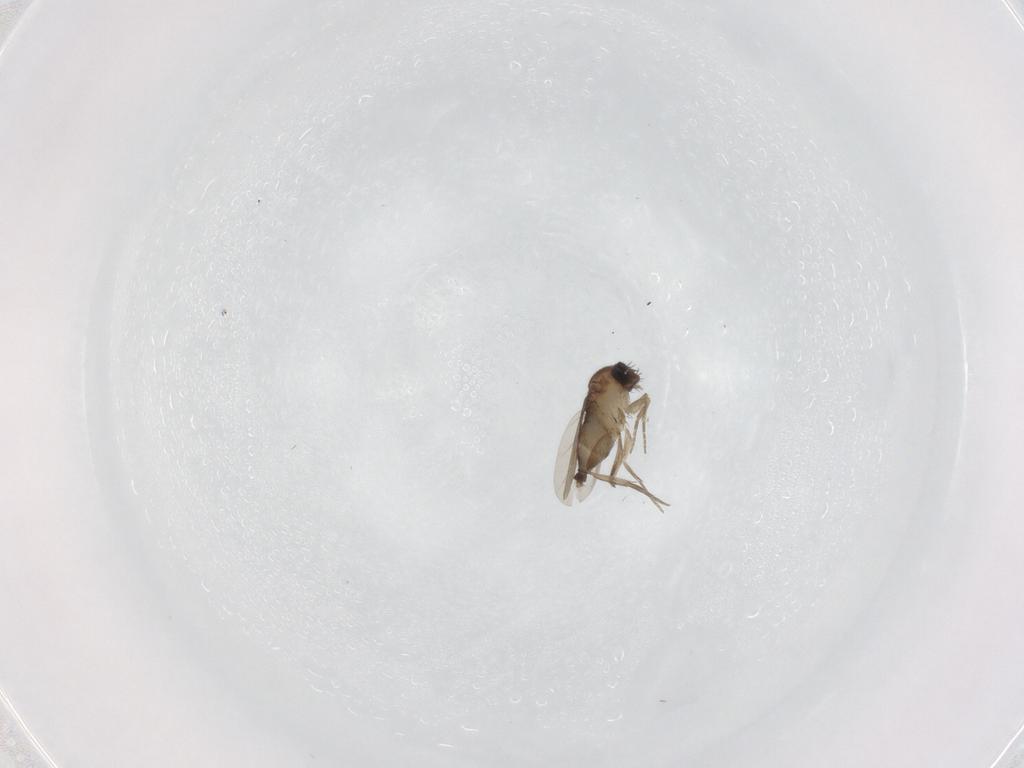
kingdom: Animalia
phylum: Arthropoda
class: Insecta
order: Diptera
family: Phoridae
